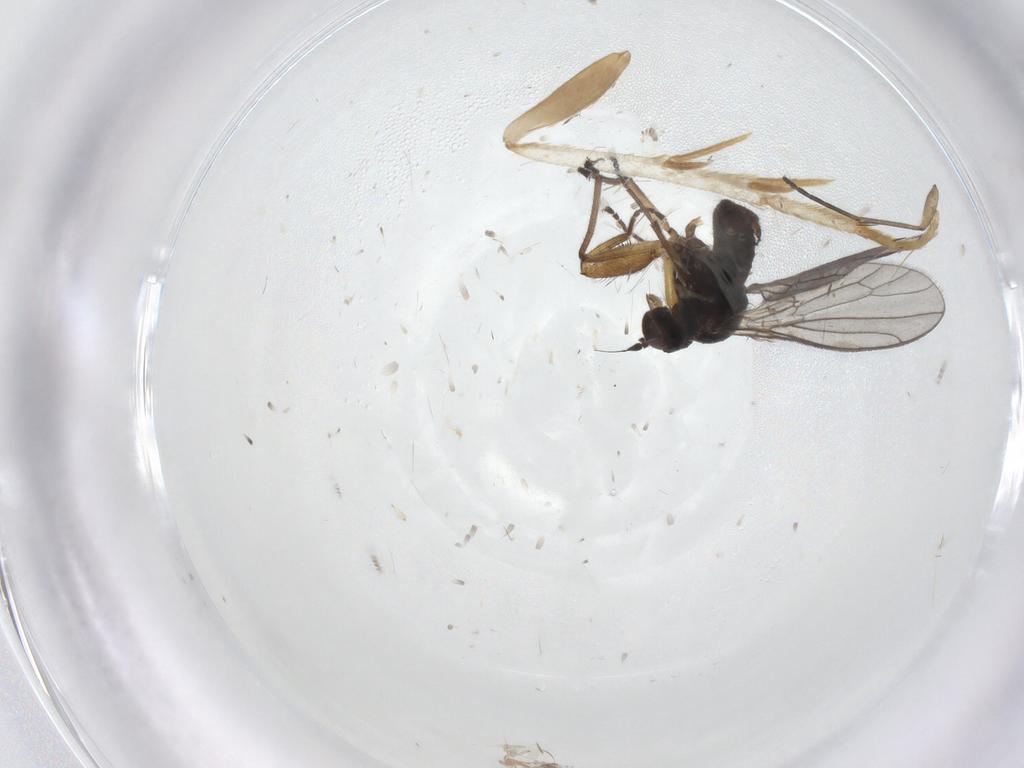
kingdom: Animalia
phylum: Arthropoda
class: Insecta
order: Diptera
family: Empididae
